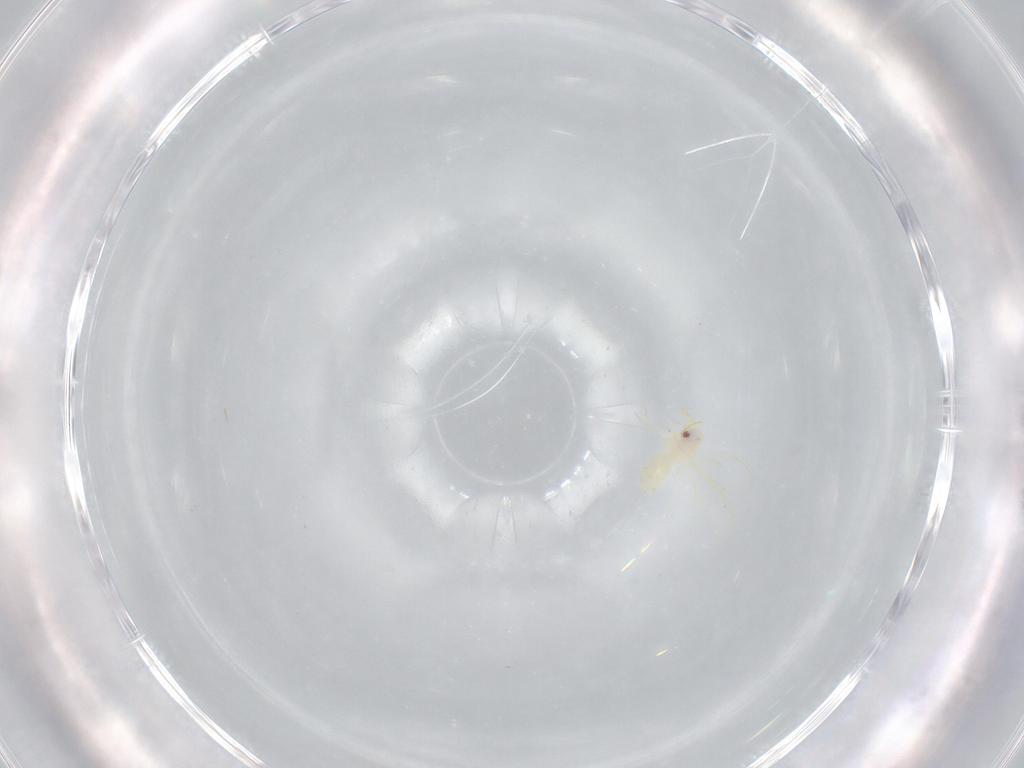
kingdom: Animalia
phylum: Arthropoda
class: Insecta
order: Hemiptera
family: Aleyrodidae
